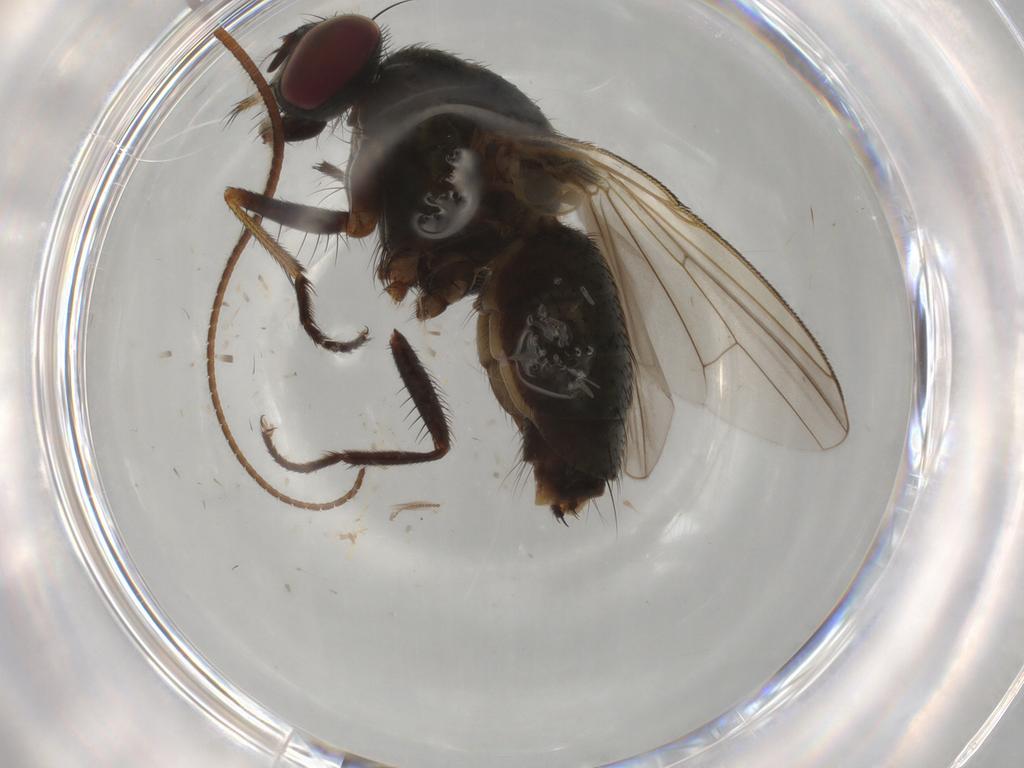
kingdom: Animalia
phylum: Arthropoda
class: Insecta
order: Diptera
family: Muscidae
